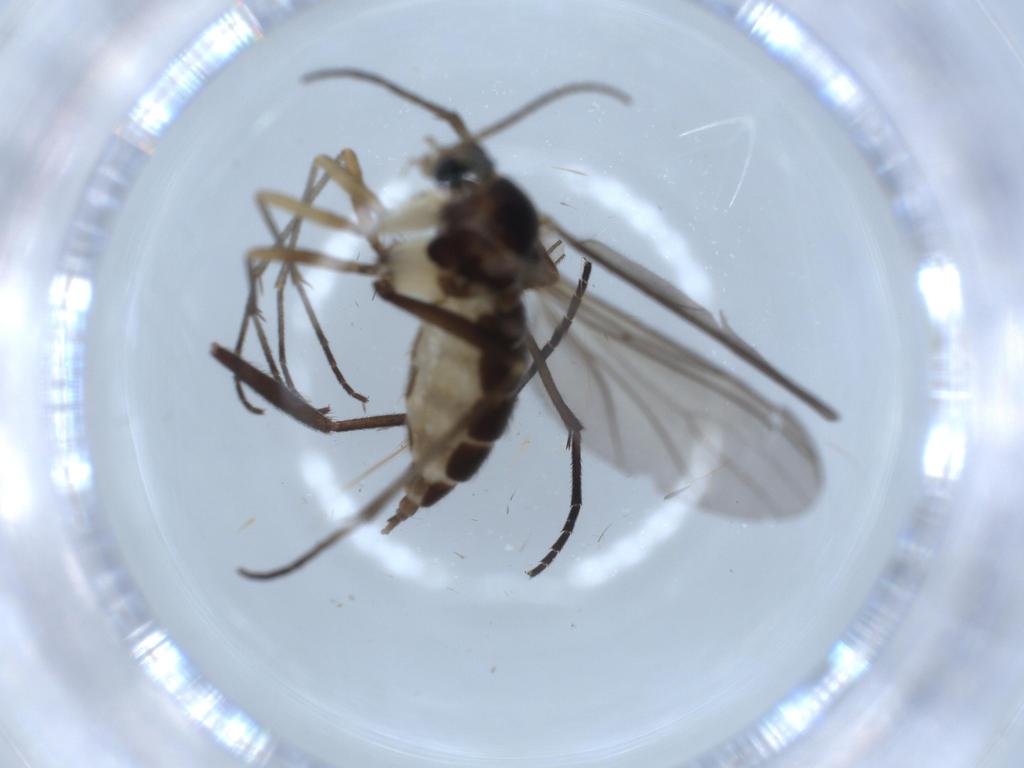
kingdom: Animalia
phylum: Arthropoda
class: Insecta
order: Diptera
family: Sciaridae
